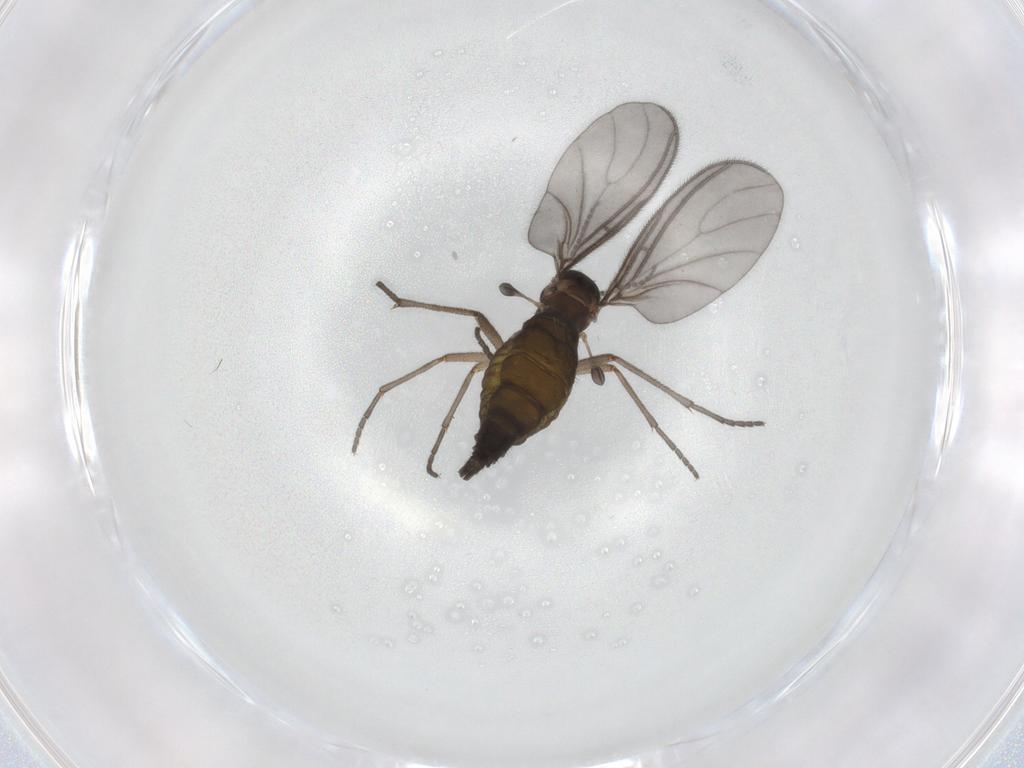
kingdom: Animalia
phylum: Arthropoda
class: Insecta
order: Diptera
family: Sciaridae
